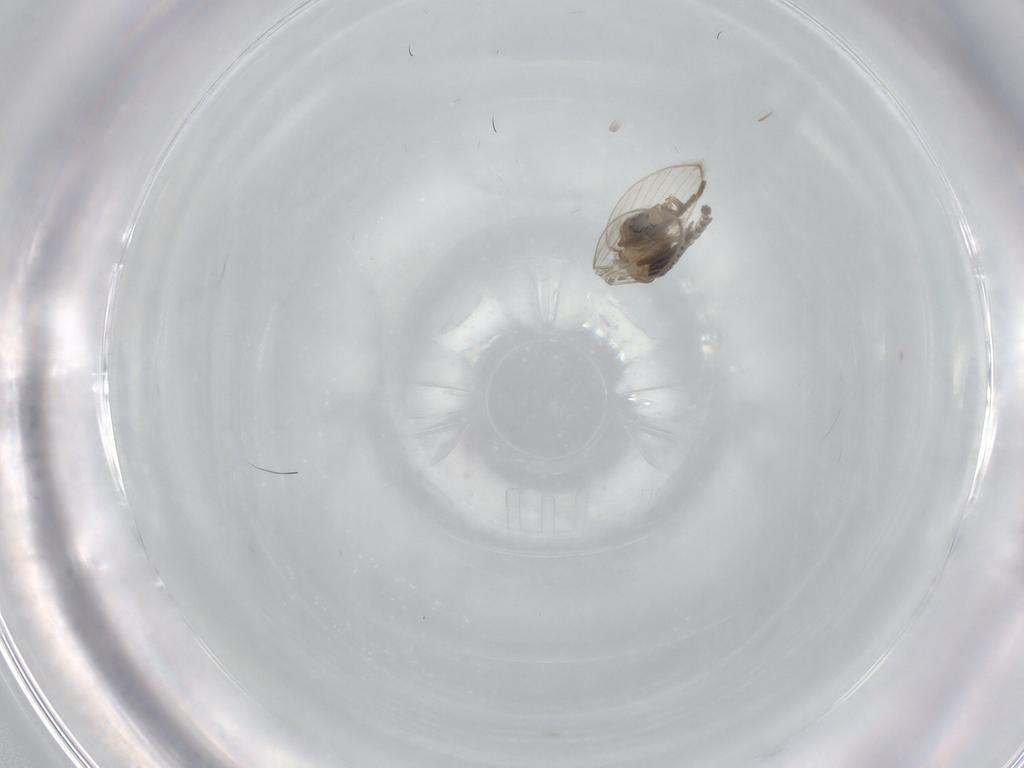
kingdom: Animalia
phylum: Arthropoda
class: Insecta
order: Diptera
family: Psychodidae
